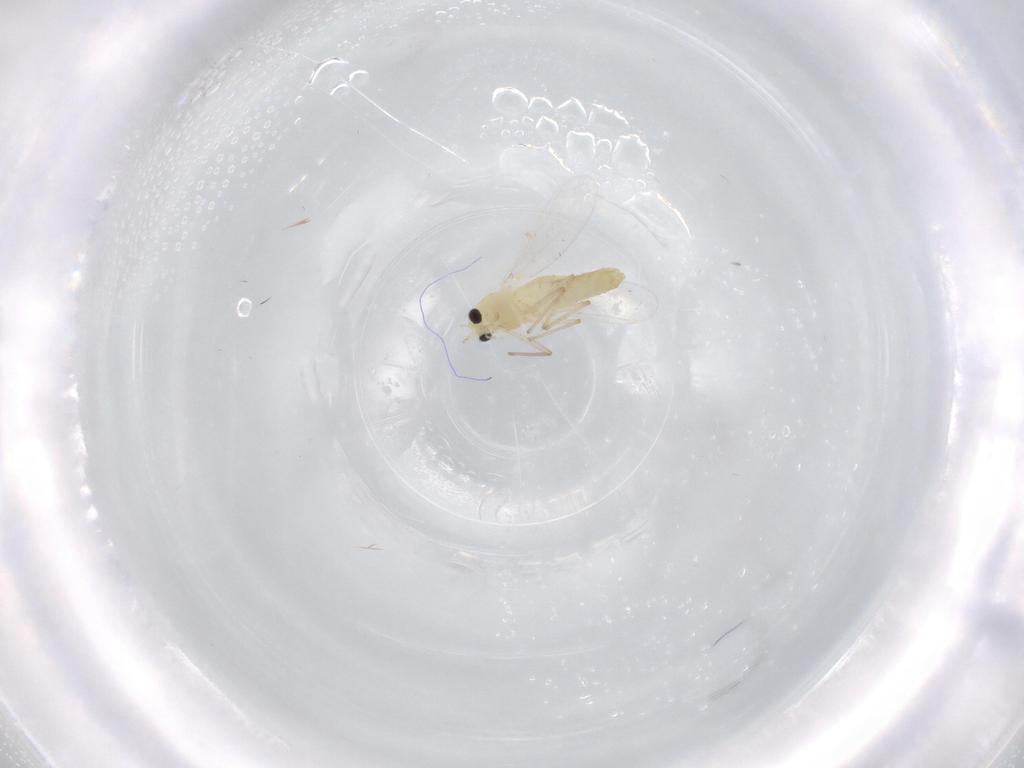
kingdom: Animalia
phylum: Arthropoda
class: Insecta
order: Diptera
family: Chironomidae
